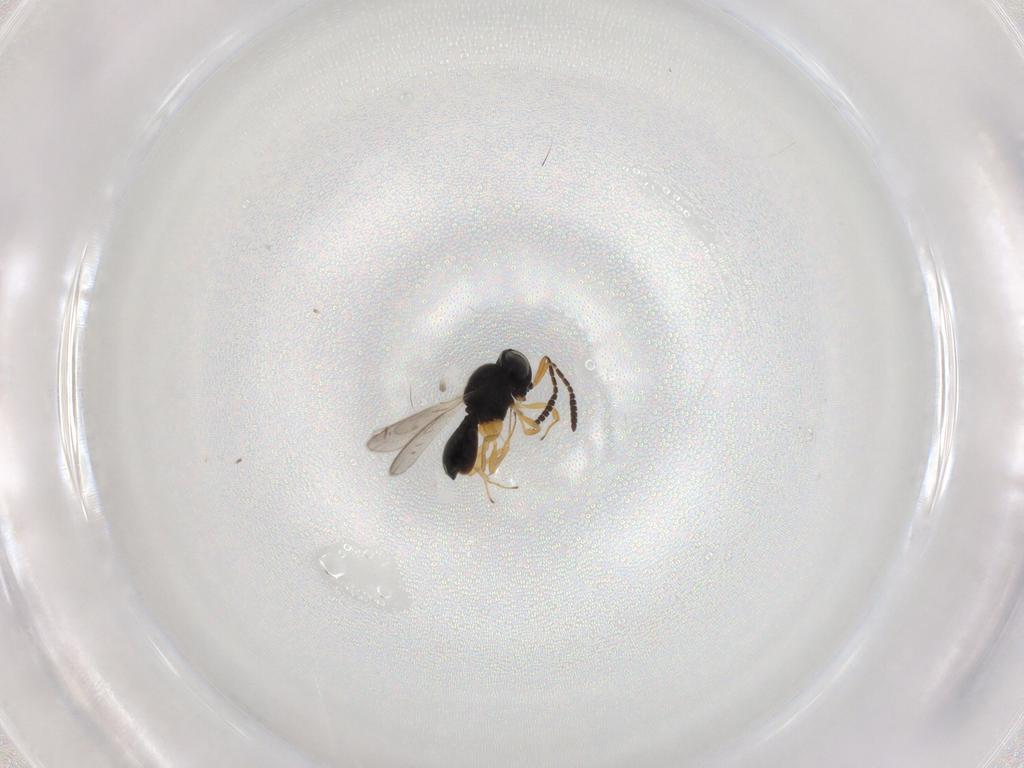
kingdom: Animalia
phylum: Arthropoda
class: Insecta
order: Hymenoptera
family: Scelionidae
